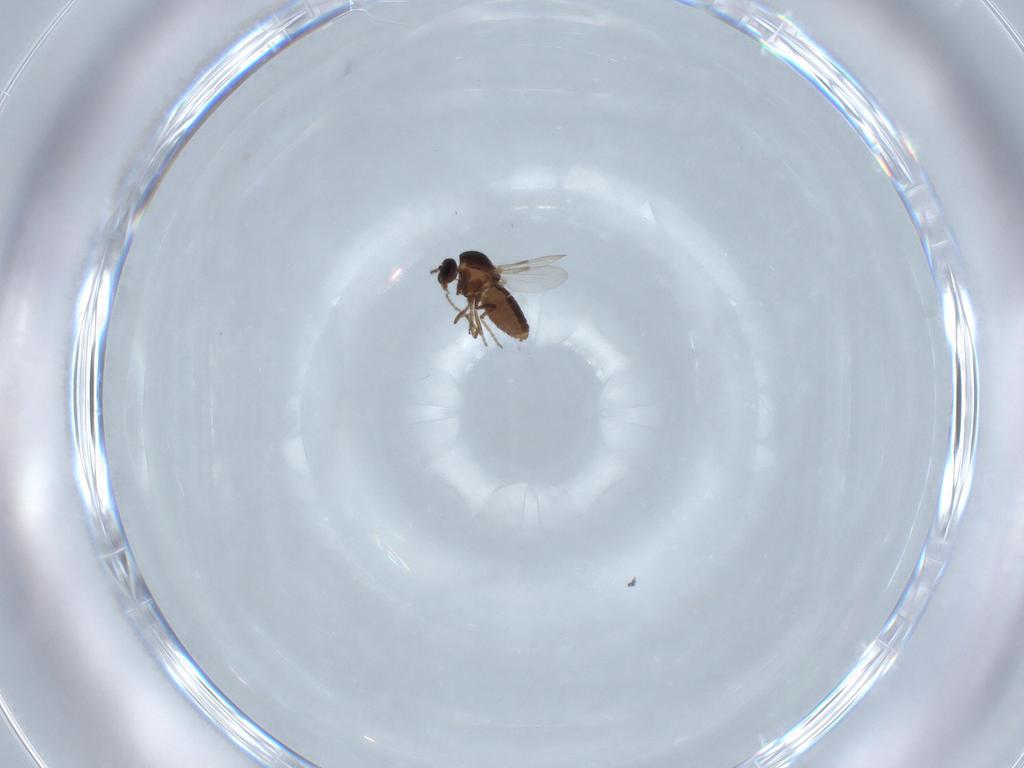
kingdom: Animalia
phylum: Arthropoda
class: Insecta
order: Diptera
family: Ceratopogonidae
